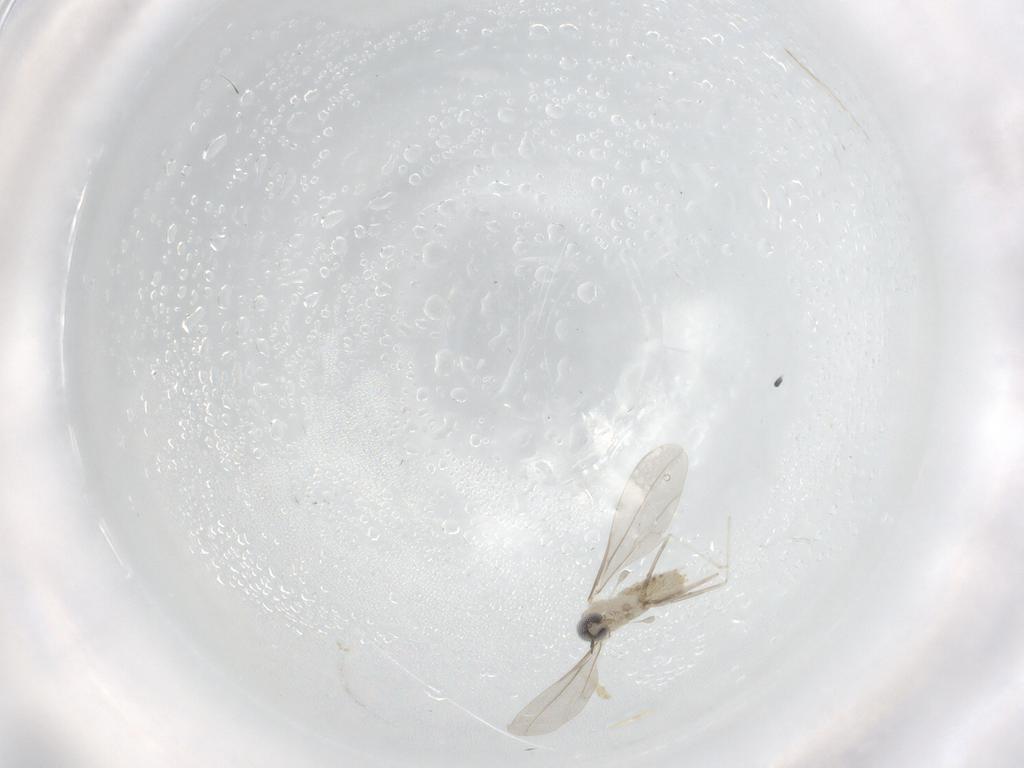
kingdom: Animalia
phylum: Arthropoda
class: Insecta
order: Diptera
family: Cecidomyiidae
